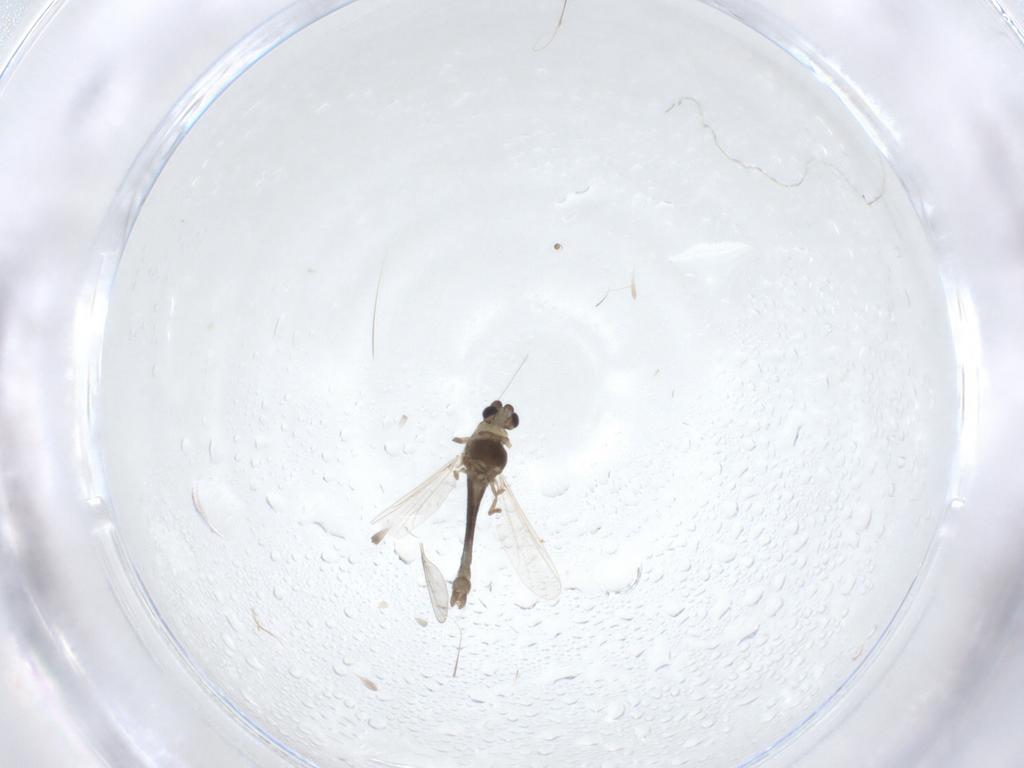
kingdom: Animalia
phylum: Arthropoda
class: Insecta
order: Diptera
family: Chironomidae
